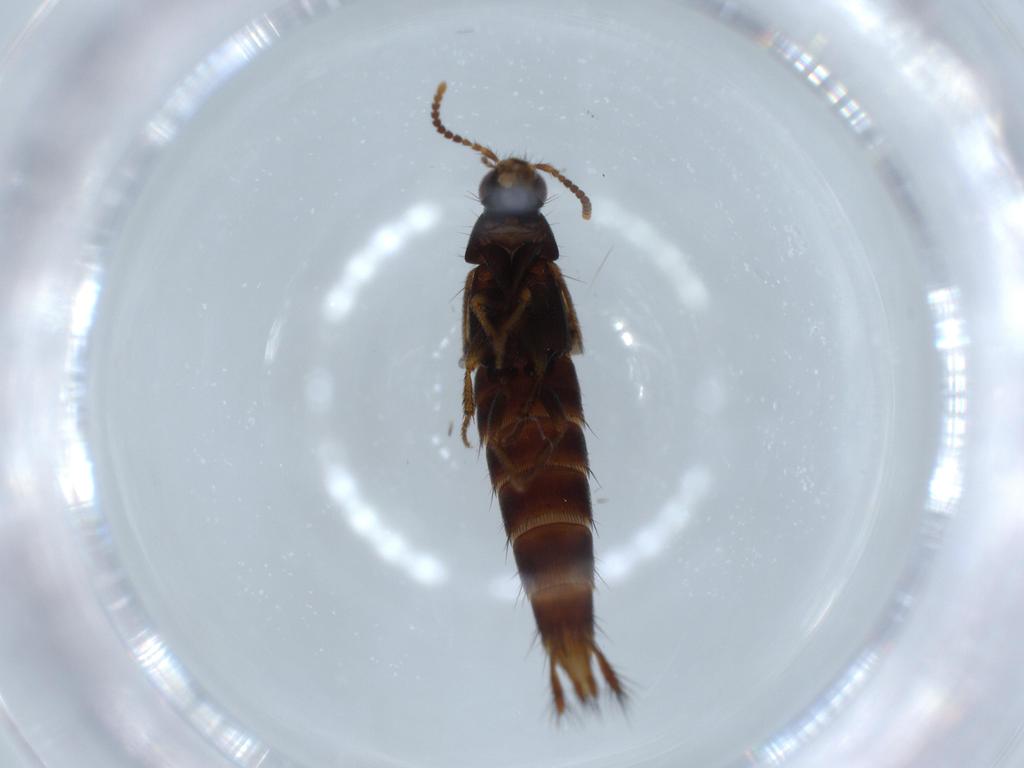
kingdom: Animalia
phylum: Arthropoda
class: Insecta
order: Coleoptera
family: Staphylinidae
